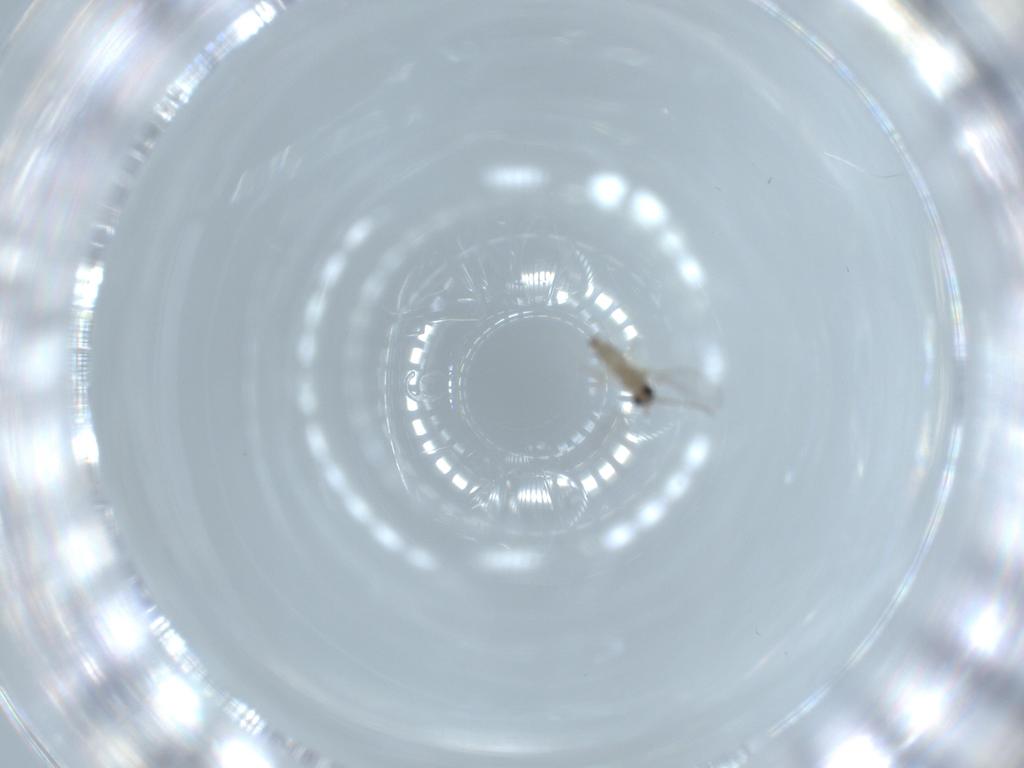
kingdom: Animalia
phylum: Arthropoda
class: Insecta
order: Diptera
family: Cecidomyiidae
